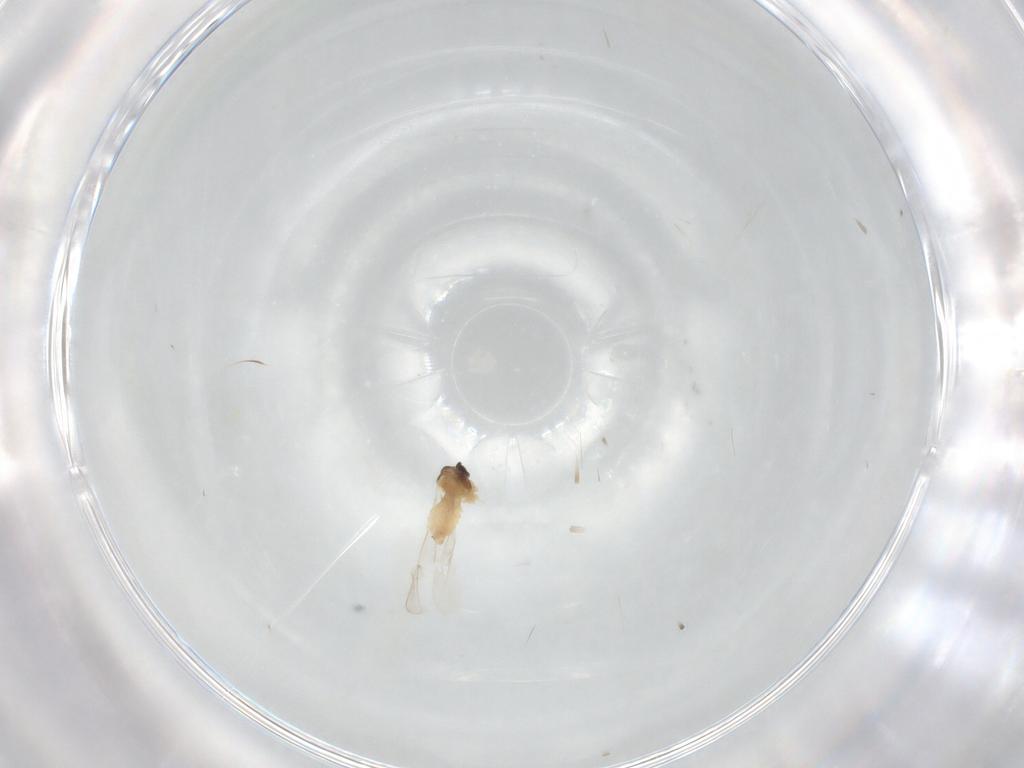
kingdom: Animalia
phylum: Arthropoda
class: Insecta
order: Diptera
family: Cecidomyiidae
